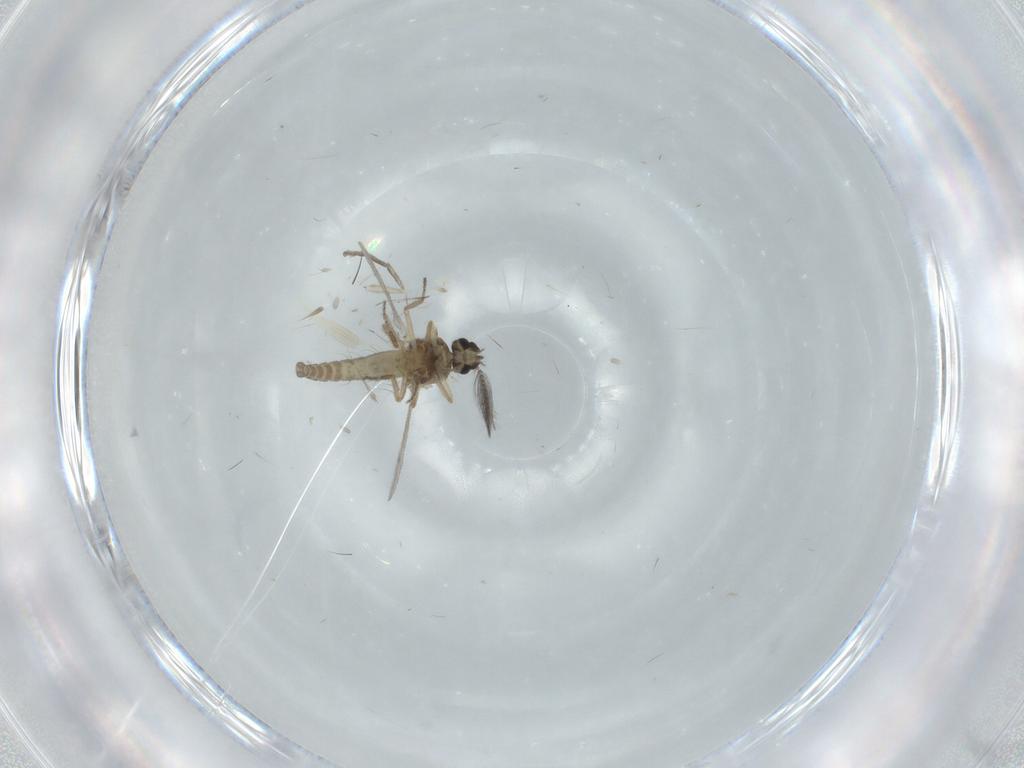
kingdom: Animalia
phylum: Arthropoda
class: Insecta
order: Diptera
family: Ceratopogonidae
